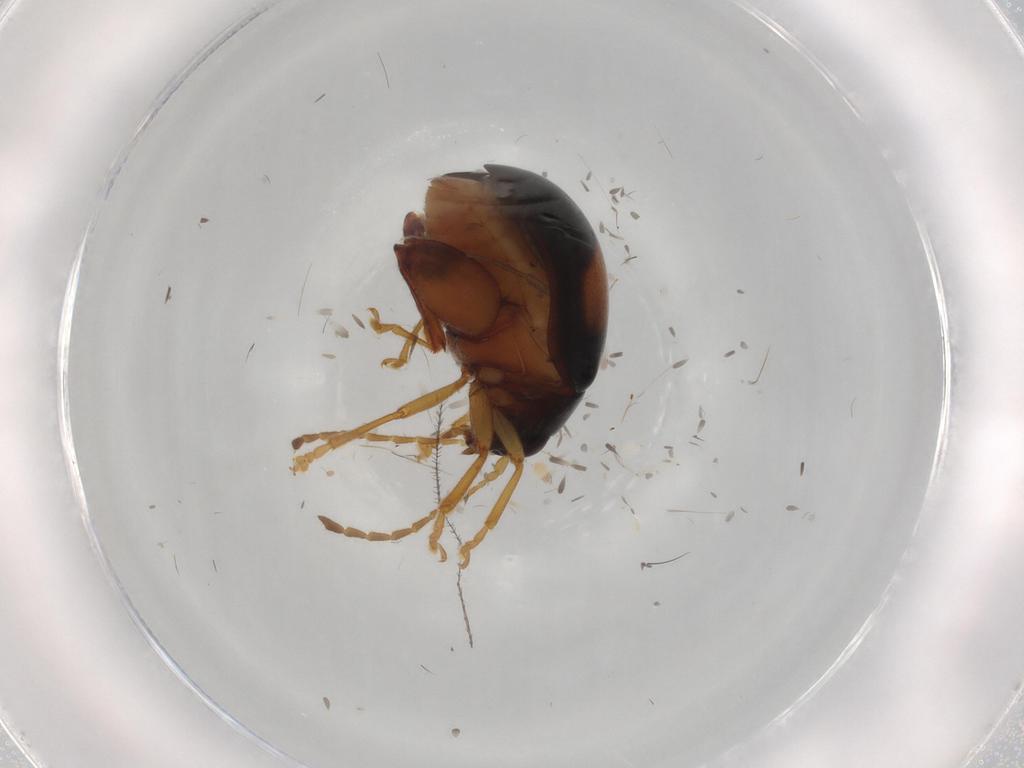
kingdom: Animalia
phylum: Arthropoda
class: Insecta
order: Coleoptera
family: Chrysomelidae
